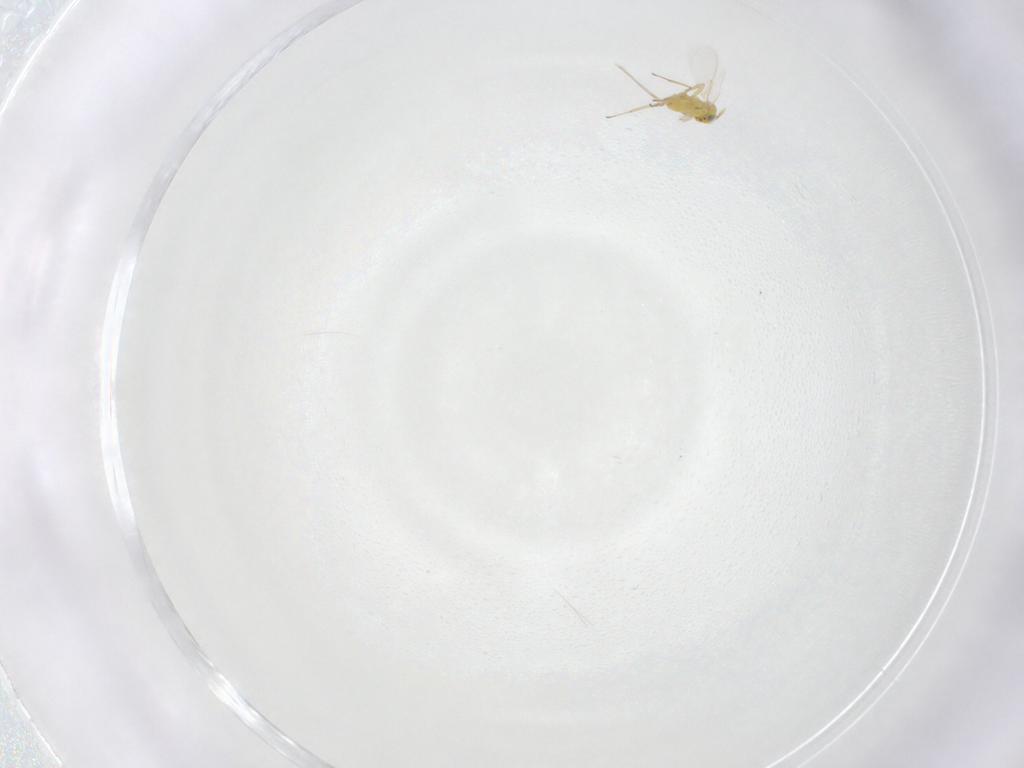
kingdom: Animalia
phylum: Arthropoda
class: Insecta
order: Hymenoptera
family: Aphelinidae
